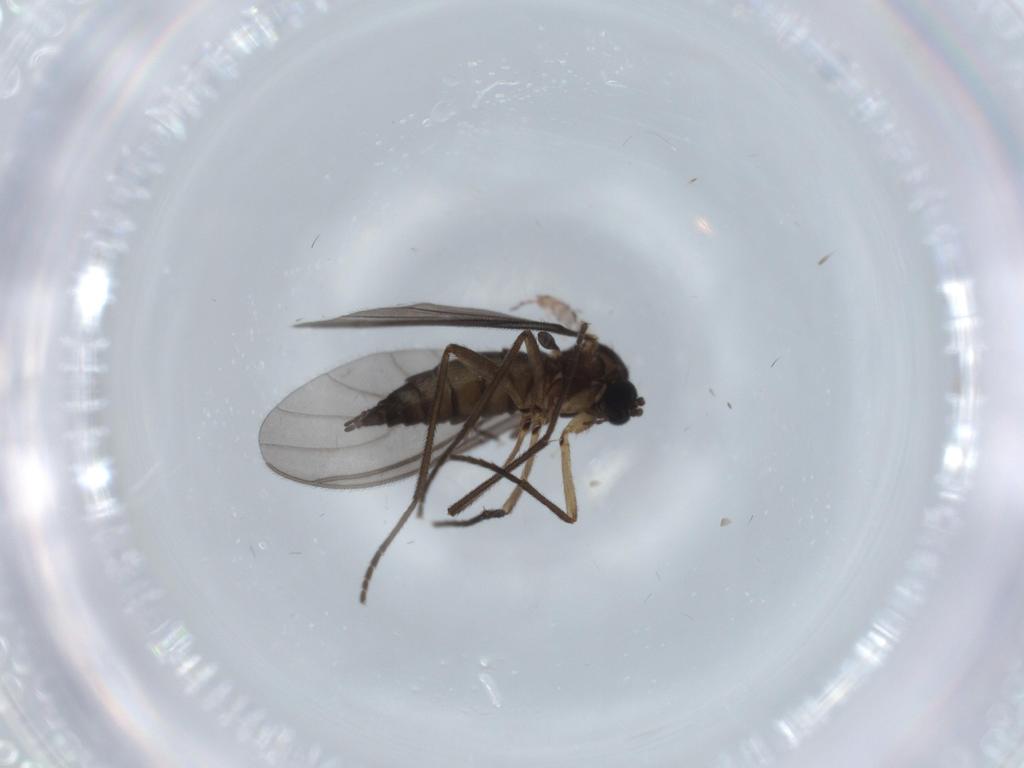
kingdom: Animalia
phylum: Arthropoda
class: Insecta
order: Diptera
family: Sciaridae
